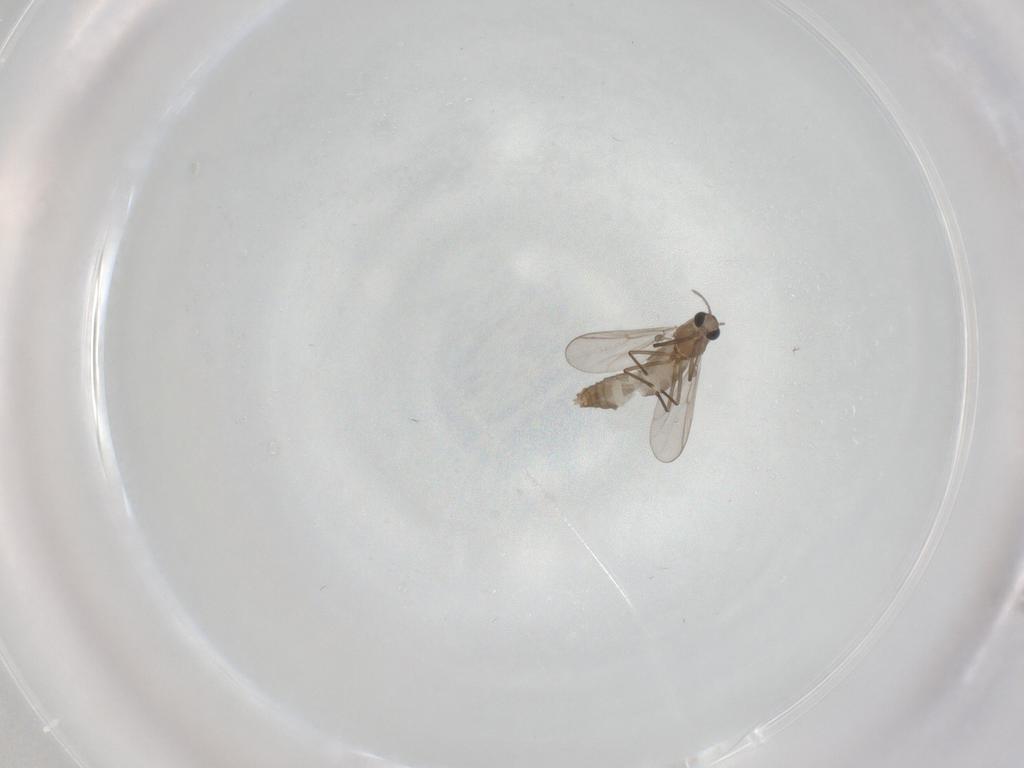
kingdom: Animalia
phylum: Arthropoda
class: Insecta
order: Diptera
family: Chironomidae
